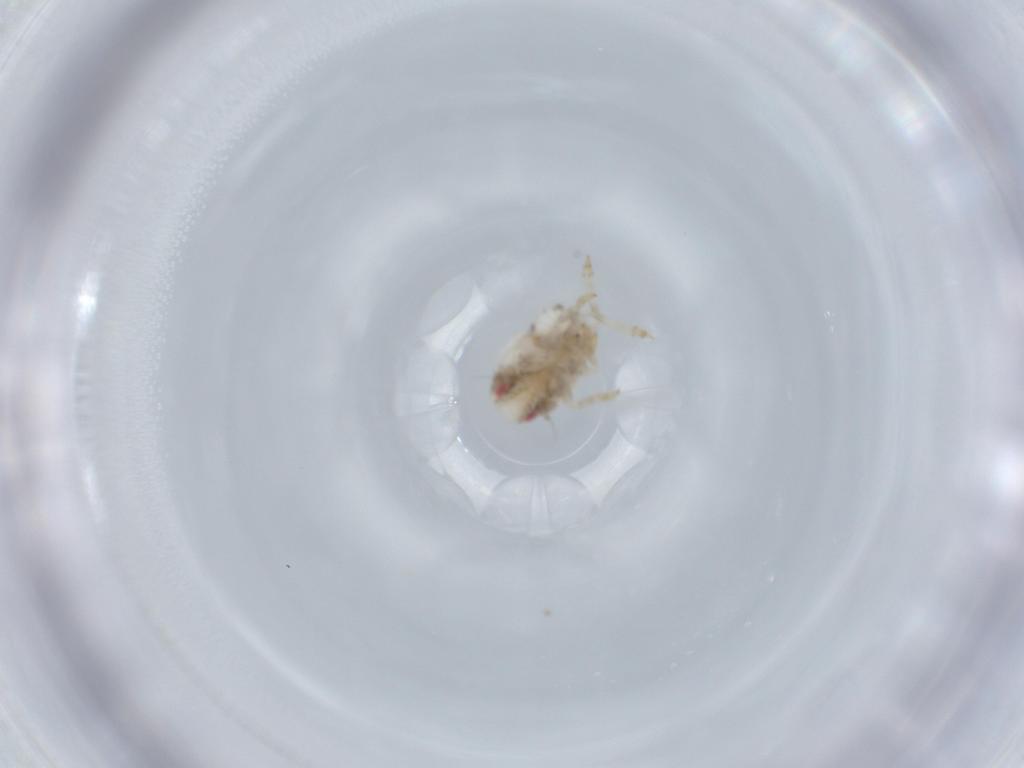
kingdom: Animalia
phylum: Arthropoda
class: Insecta
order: Hemiptera
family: Acanaloniidae
